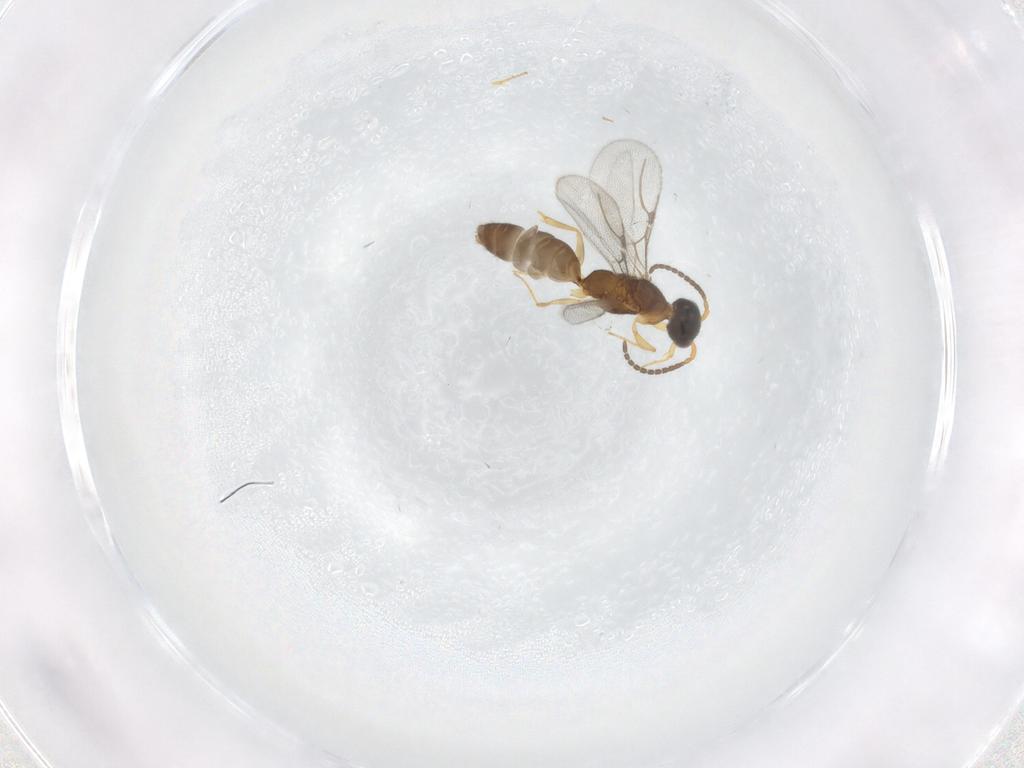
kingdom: Animalia
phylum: Arthropoda
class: Insecta
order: Hymenoptera
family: Bethylidae
